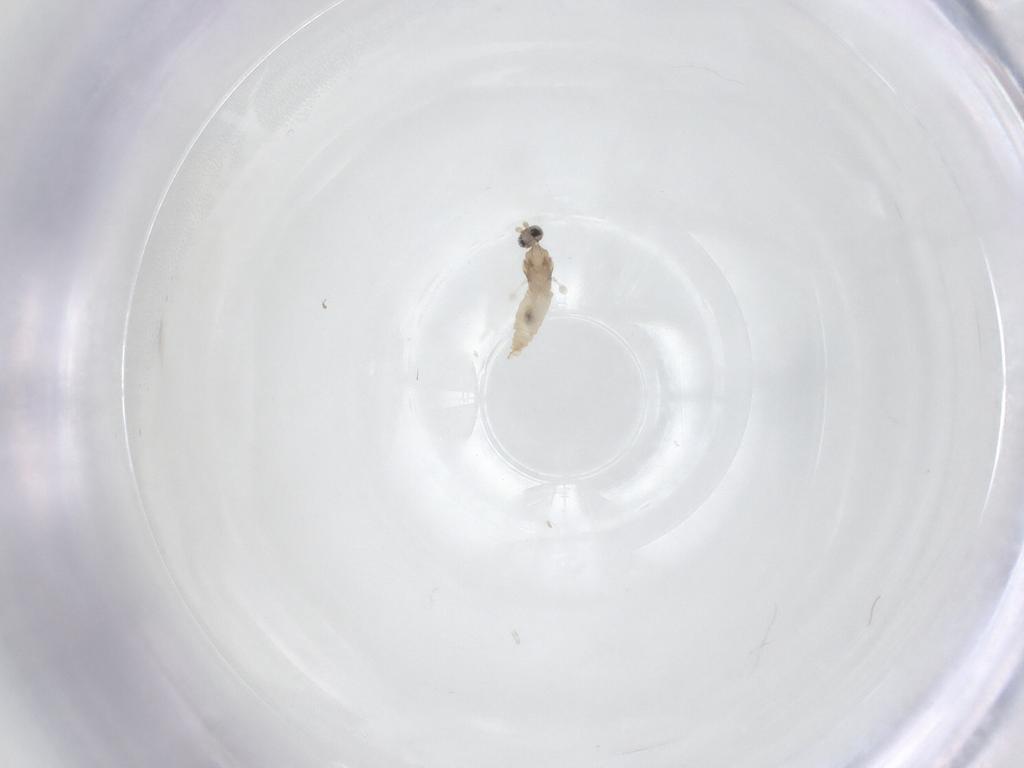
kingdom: Animalia
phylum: Arthropoda
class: Insecta
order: Diptera
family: Cecidomyiidae
